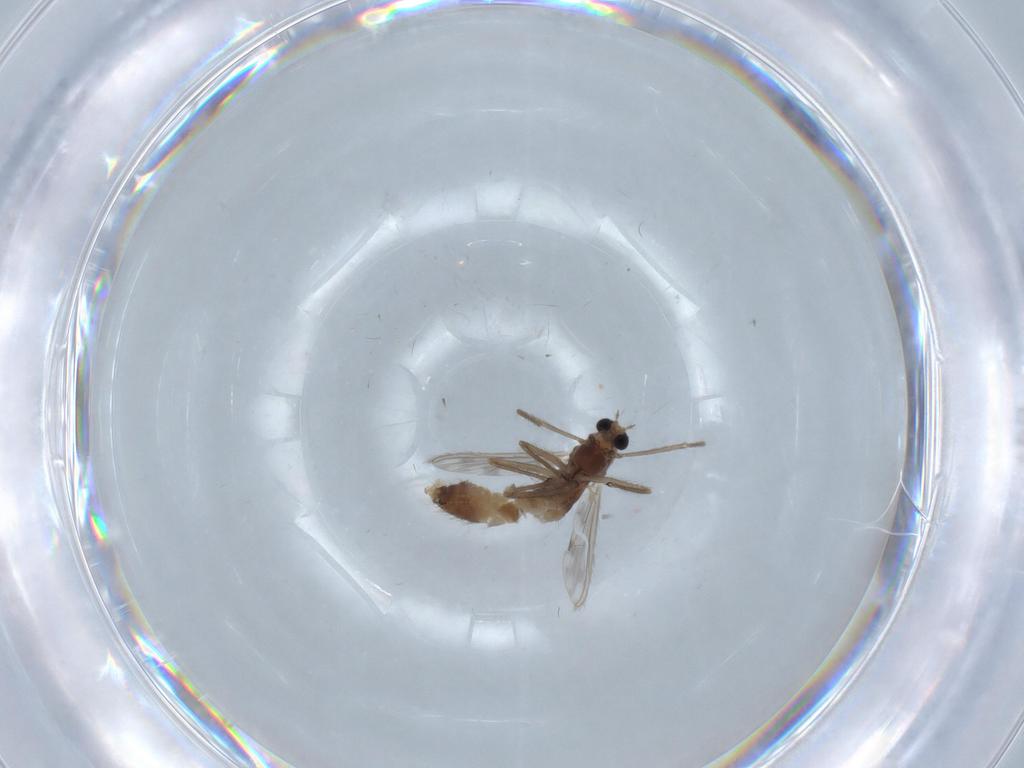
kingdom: Animalia
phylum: Arthropoda
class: Insecta
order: Diptera
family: Chironomidae
